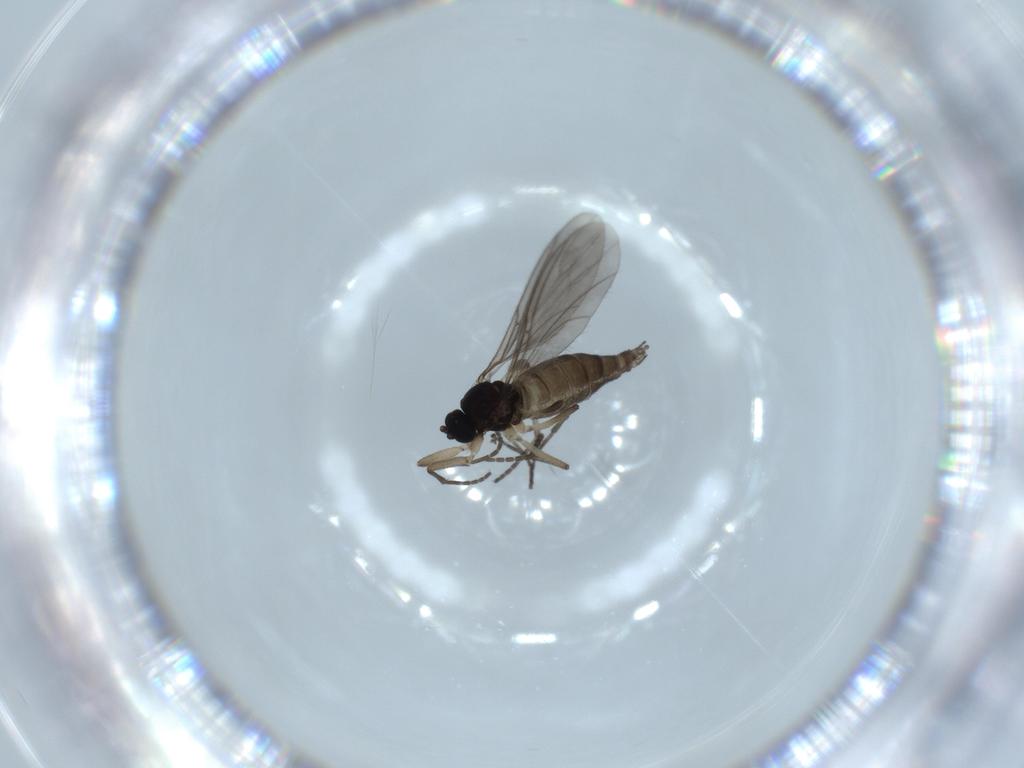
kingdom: Animalia
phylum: Arthropoda
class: Insecta
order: Diptera
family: Sciaridae
